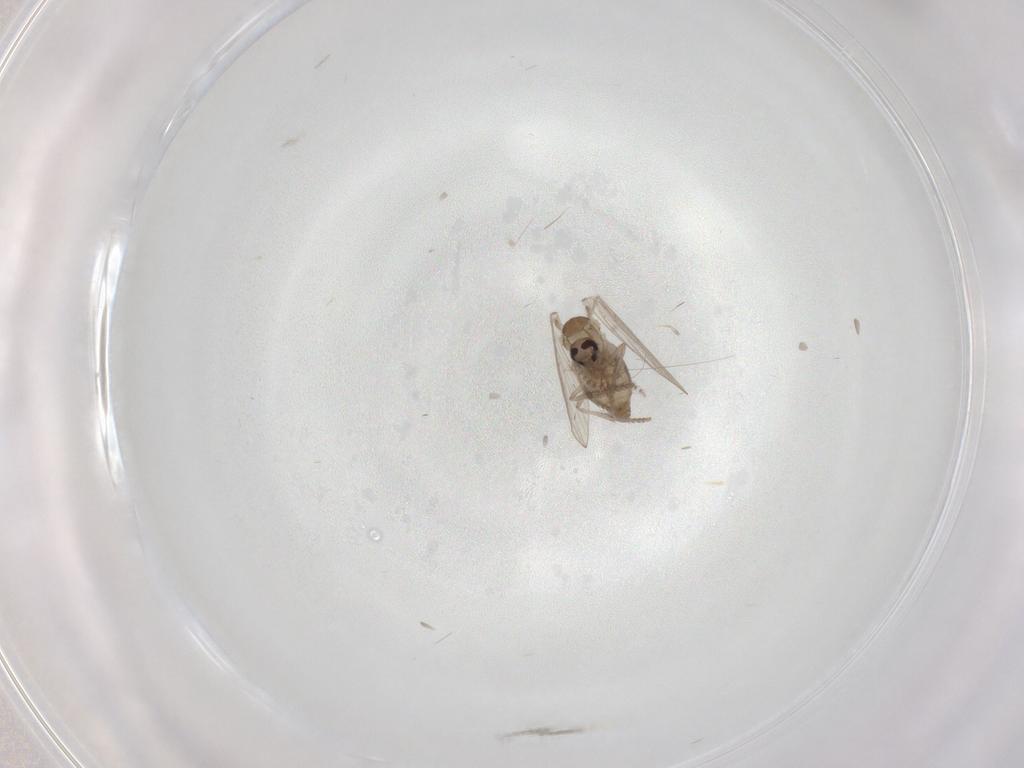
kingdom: Animalia
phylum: Arthropoda
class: Insecta
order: Diptera
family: Psychodidae
